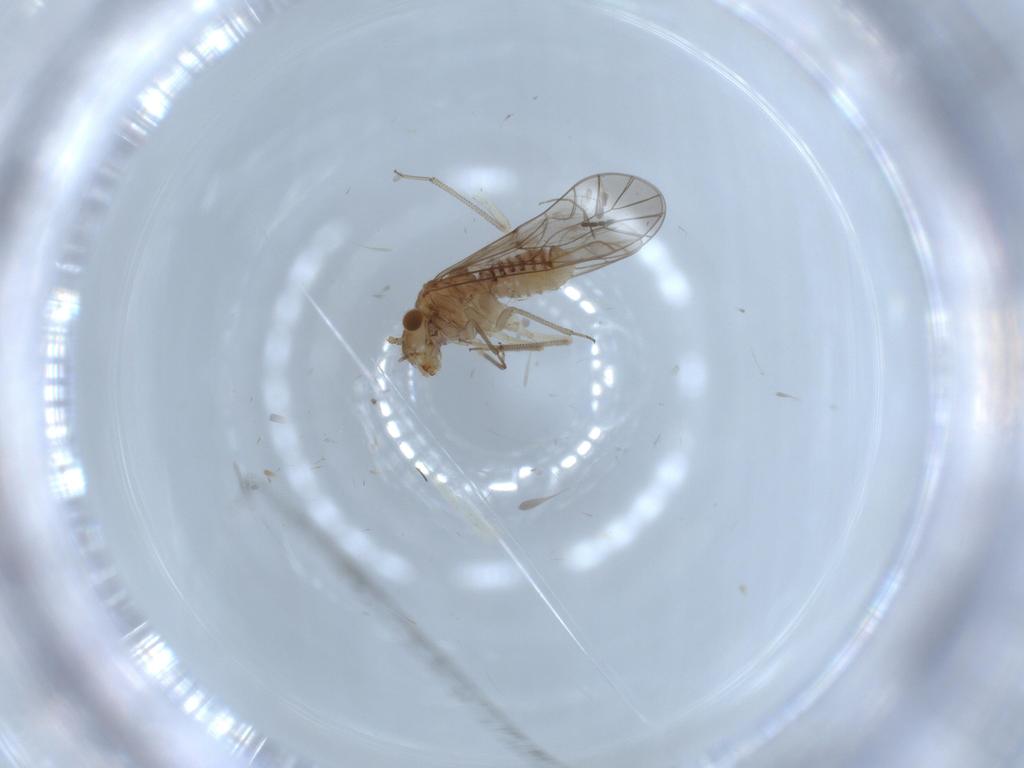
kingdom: Animalia
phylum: Arthropoda
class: Insecta
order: Psocodea
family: Lachesillidae
